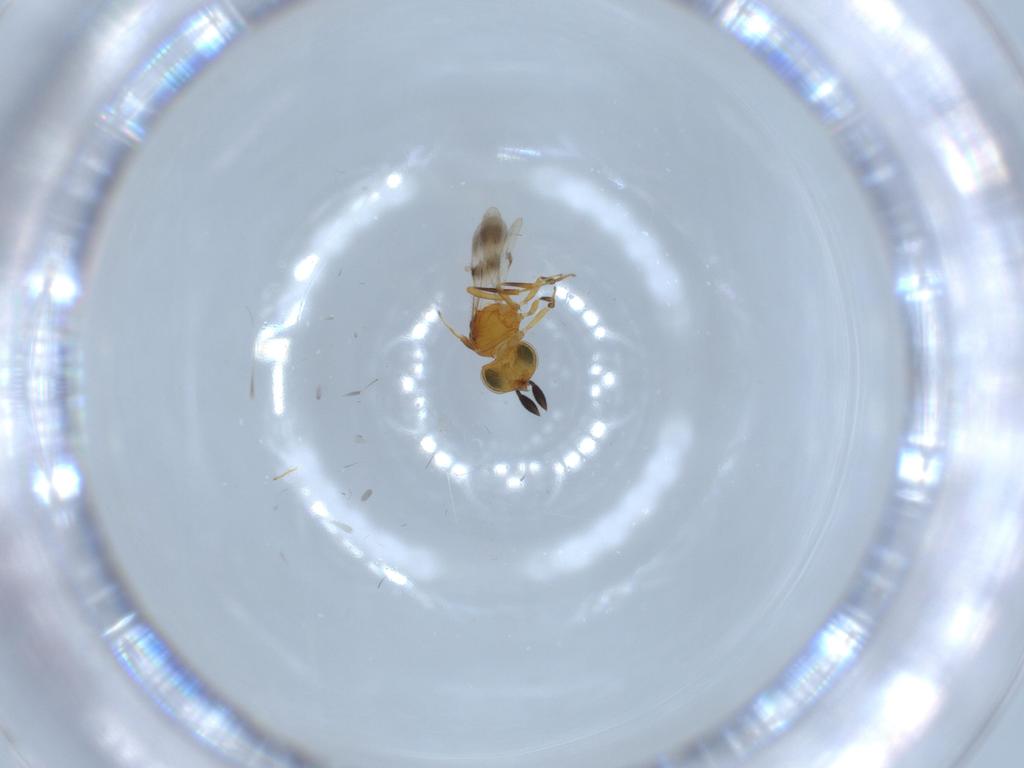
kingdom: Animalia
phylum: Arthropoda
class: Insecta
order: Hymenoptera
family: Scelionidae
